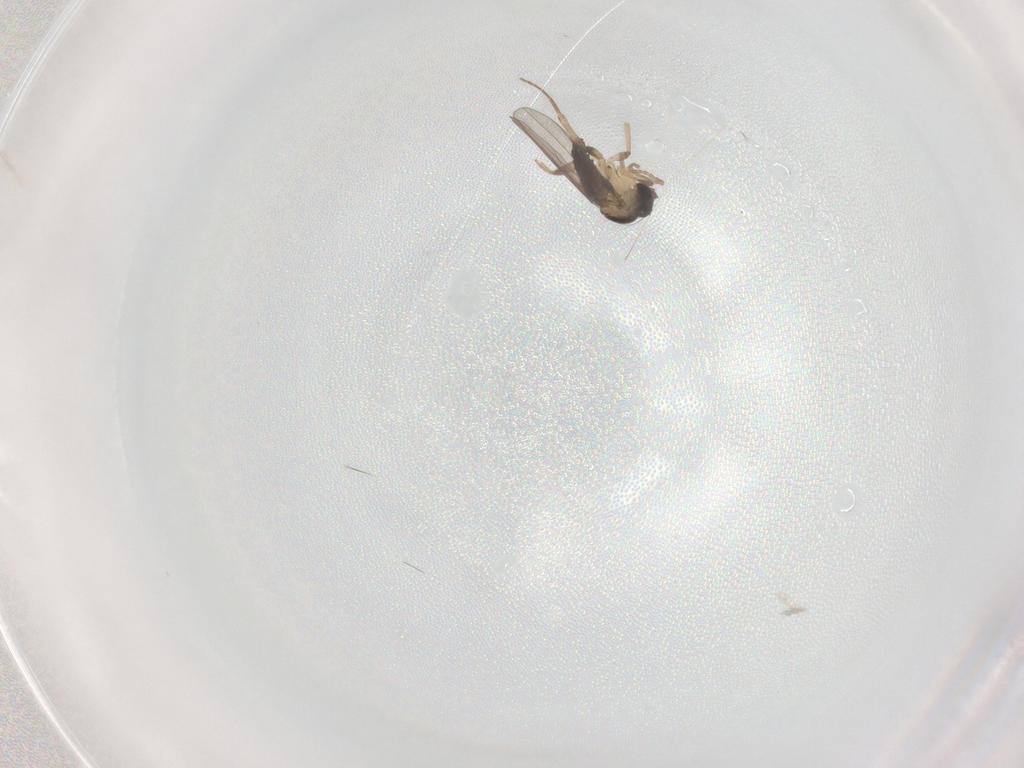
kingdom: Animalia
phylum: Arthropoda
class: Insecta
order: Diptera
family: Phoridae
